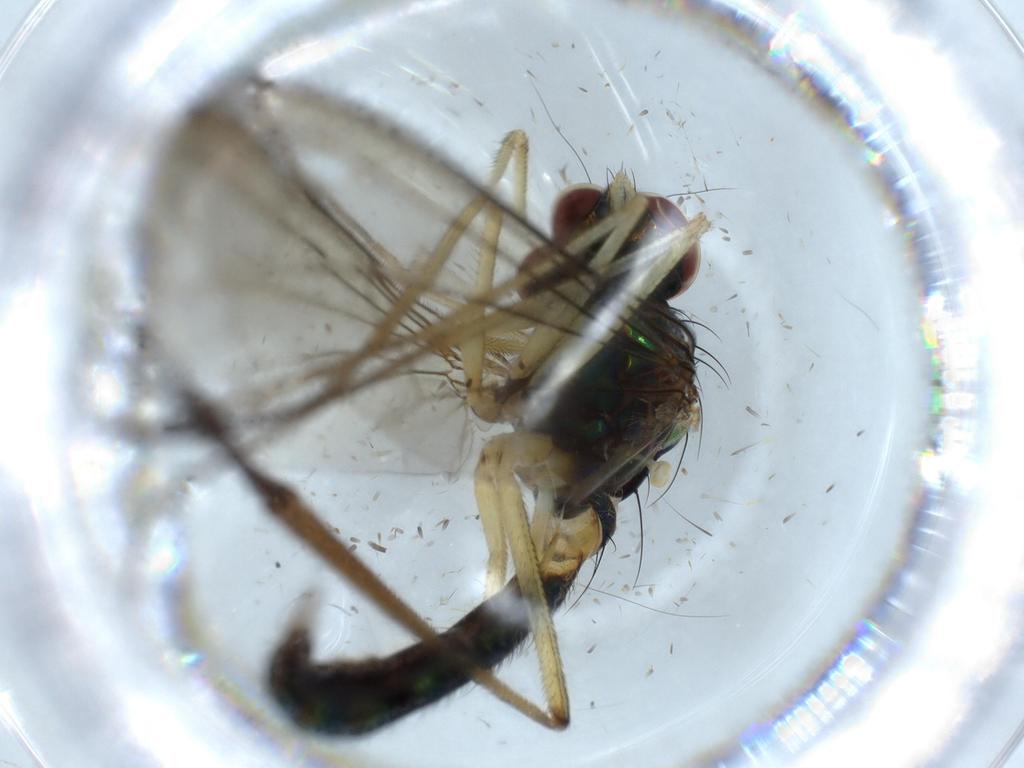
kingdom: Animalia
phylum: Arthropoda
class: Insecta
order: Diptera
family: Dolichopodidae
